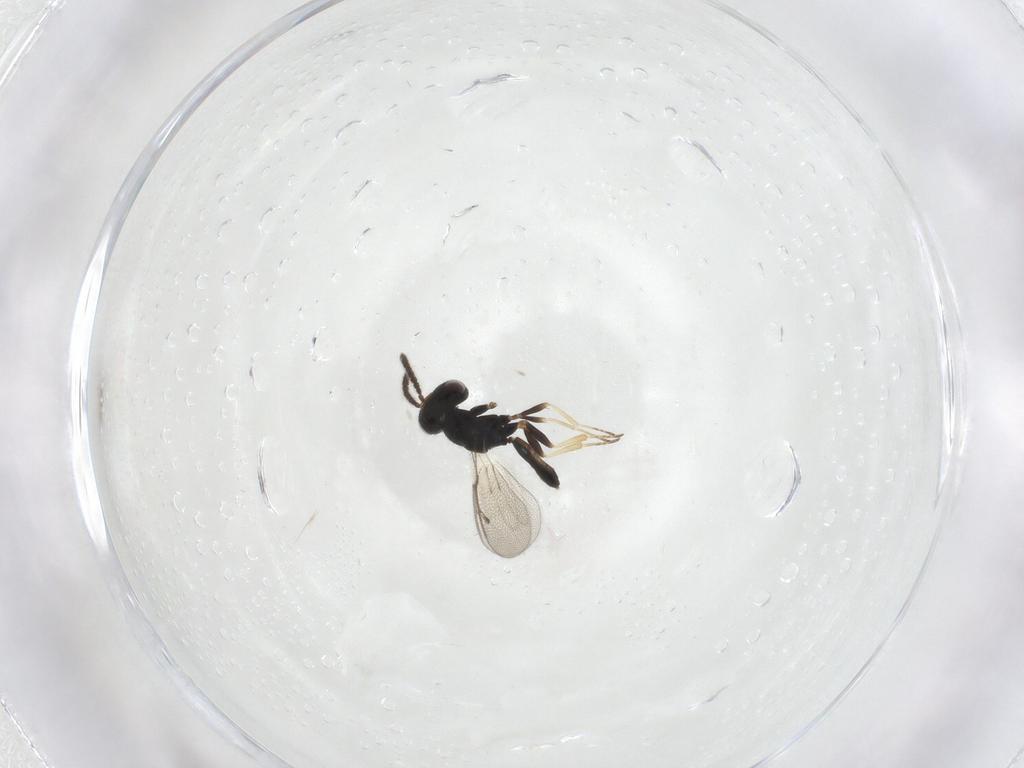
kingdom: Animalia
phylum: Arthropoda
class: Insecta
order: Hymenoptera
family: Pteromalidae
